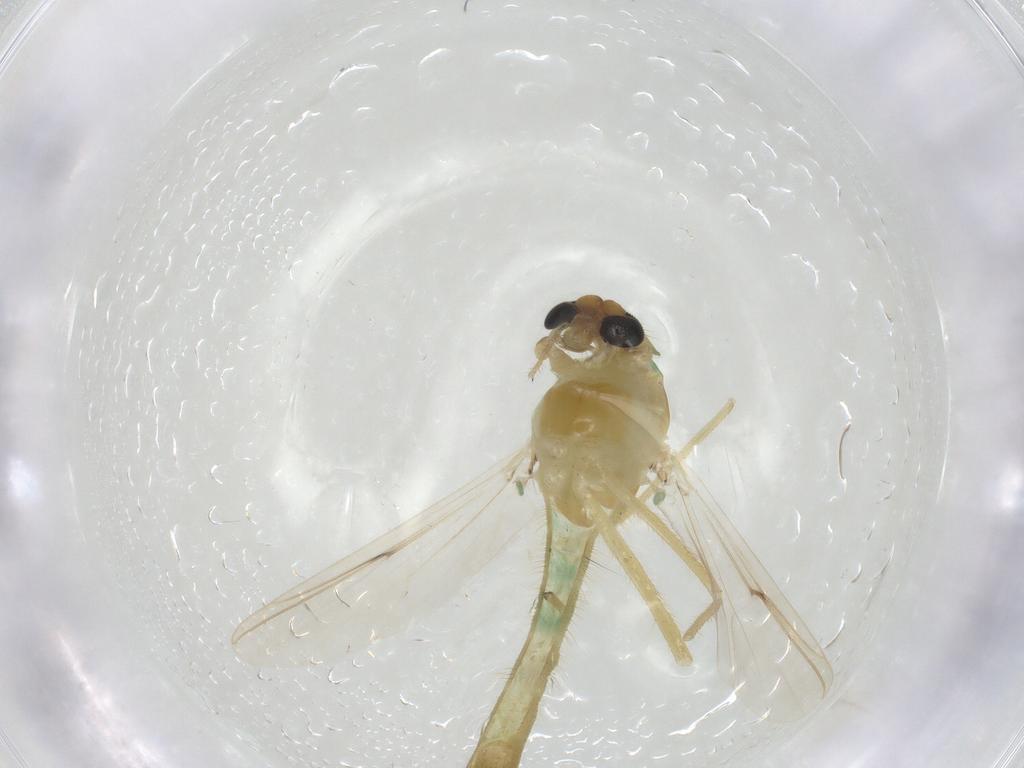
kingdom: Animalia
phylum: Arthropoda
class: Insecta
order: Diptera
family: Chironomidae
